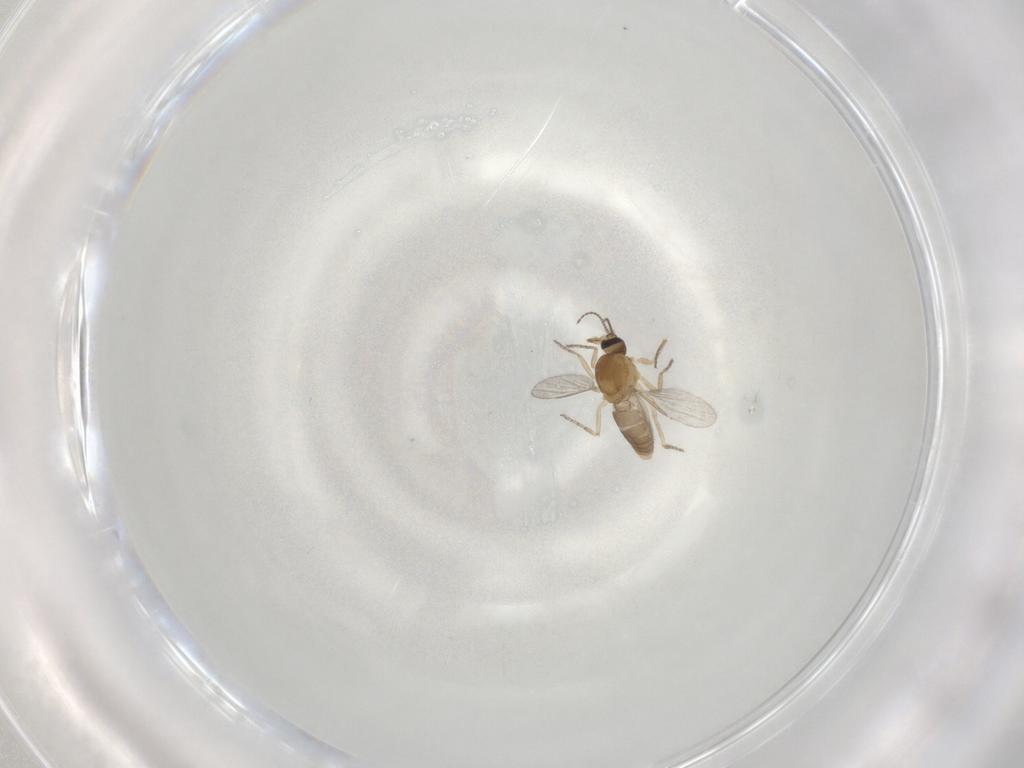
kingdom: Animalia
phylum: Arthropoda
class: Insecta
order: Diptera
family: Ceratopogonidae
